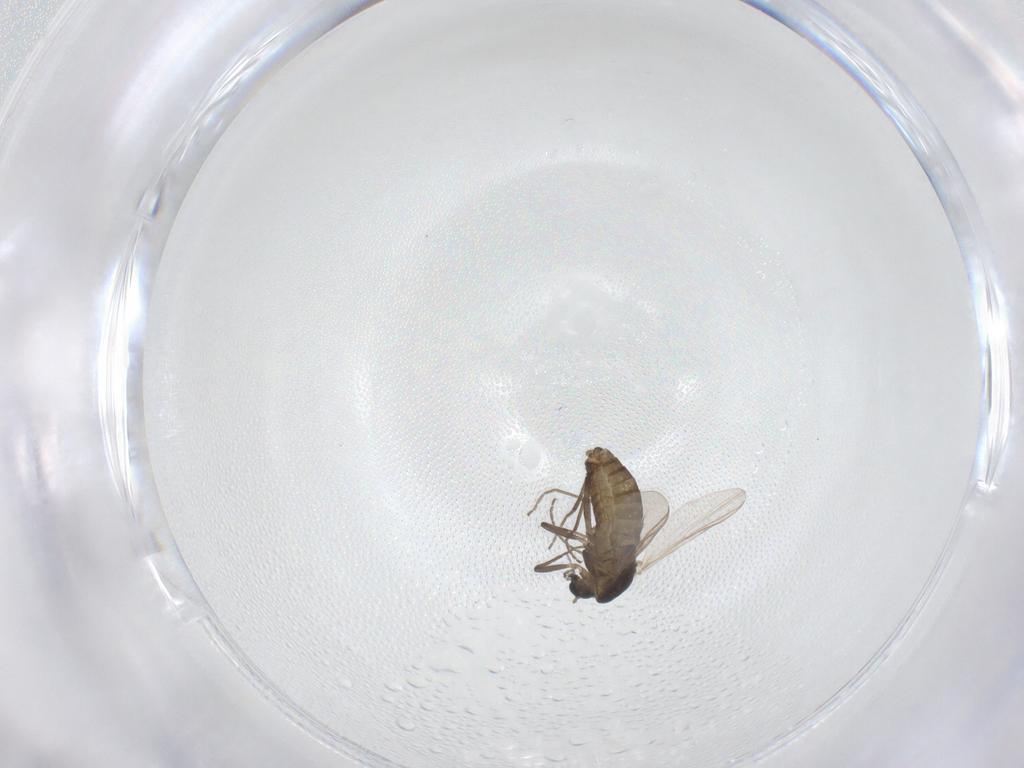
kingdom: Animalia
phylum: Arthropoda
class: Insecta
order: Diptera
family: Chironomidae
